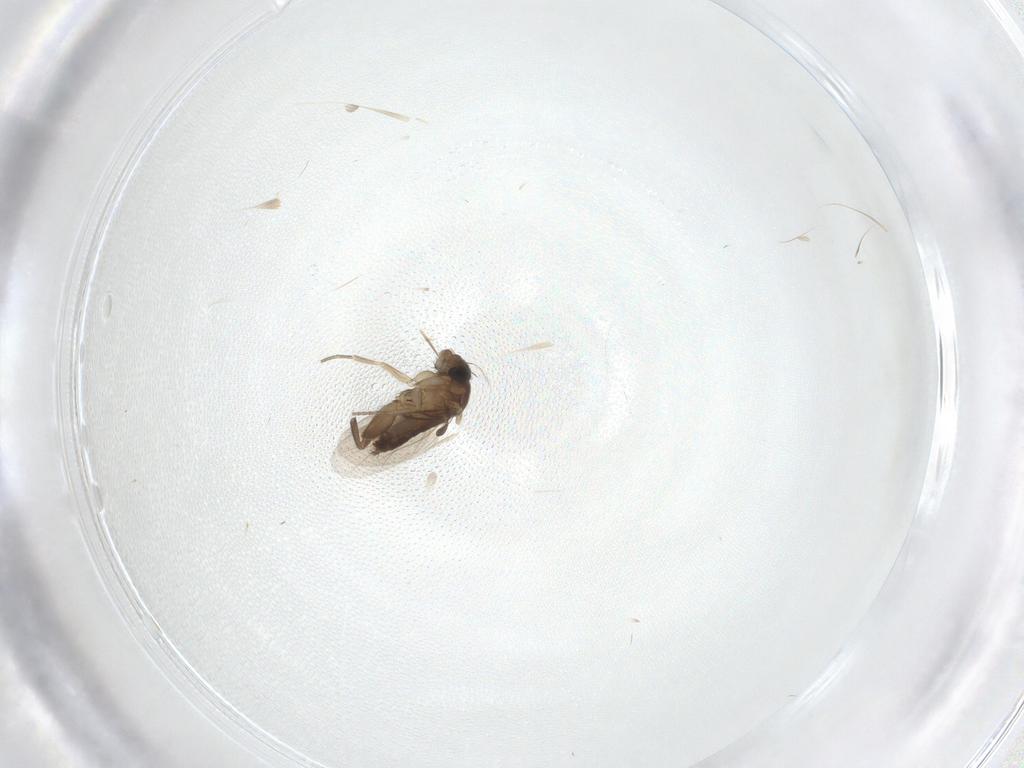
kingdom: Animalia
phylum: Arthropoda
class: Insecta
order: Diptera
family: Phoridae
